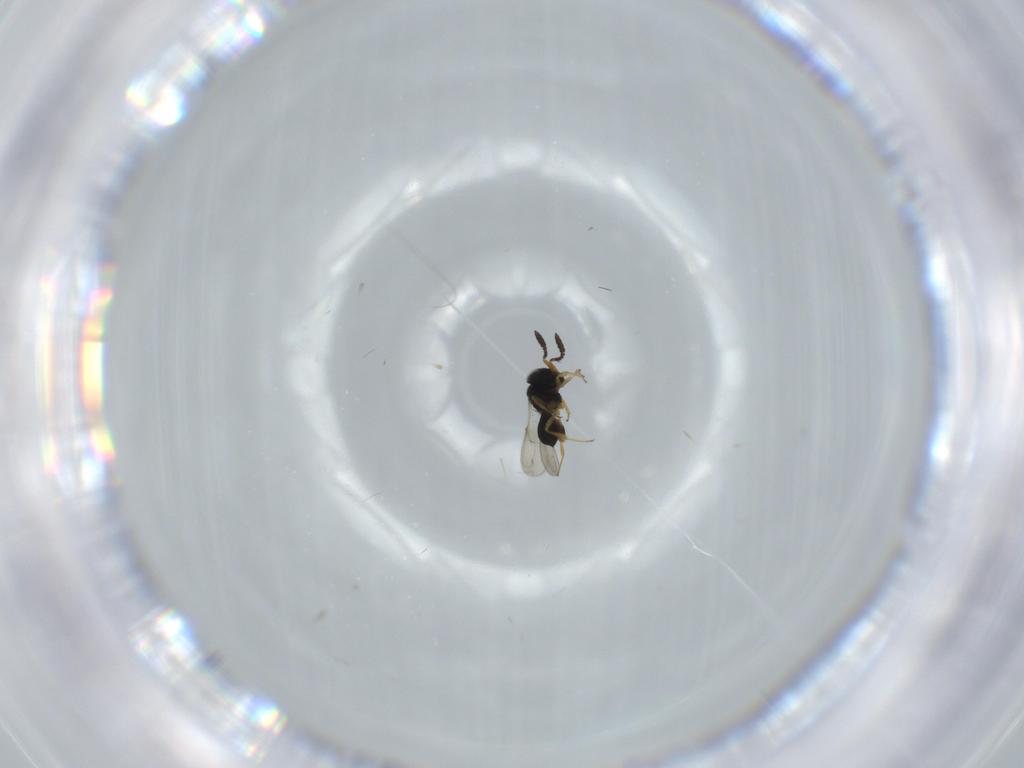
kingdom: Animalia
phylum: Arthropoda
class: Insecta
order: Hymenoptera
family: Scelionidae
